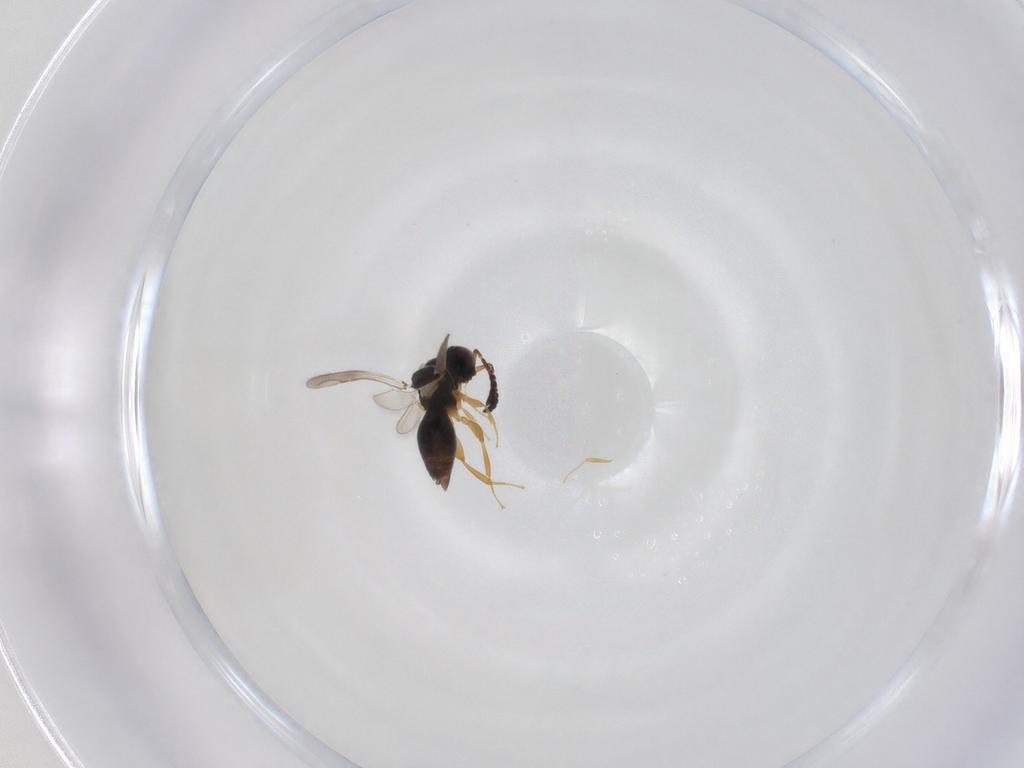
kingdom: Animalia
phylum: Arthropoda
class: Insecta
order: Hymenoptera
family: Ceraphronidae
